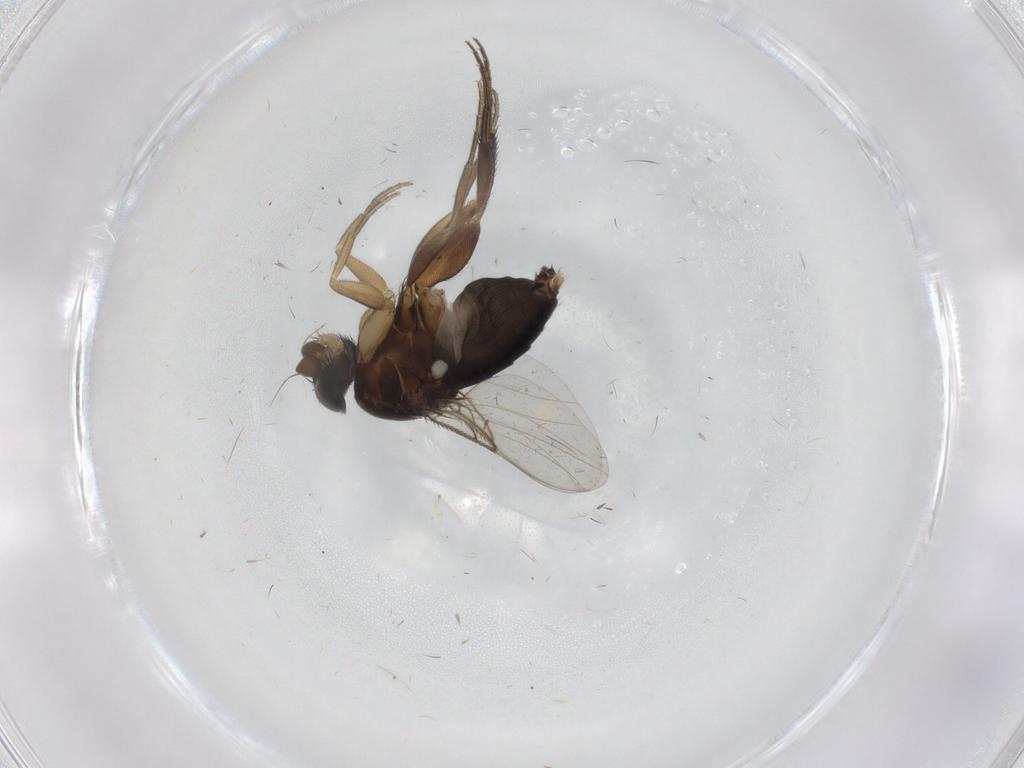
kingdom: Animalia
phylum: Arthropoda
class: Insecta
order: Diptera
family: Phoridae
